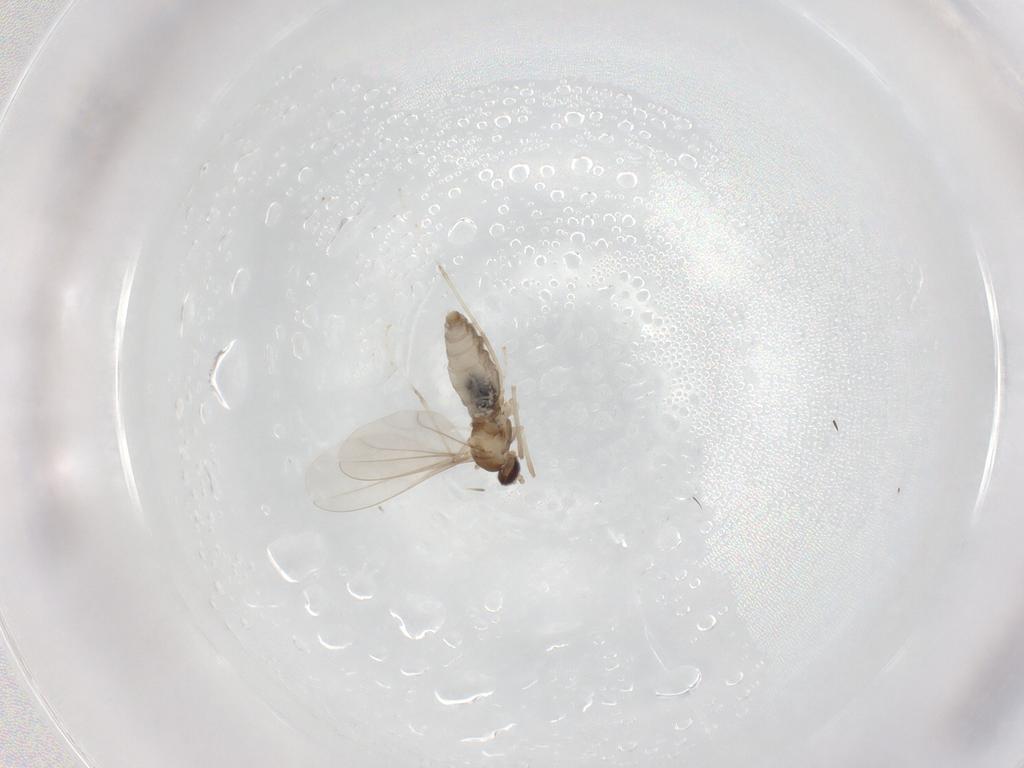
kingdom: Animalia
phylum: Arthropoda
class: Insecta
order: Diptera
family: Cecidomyiidae
